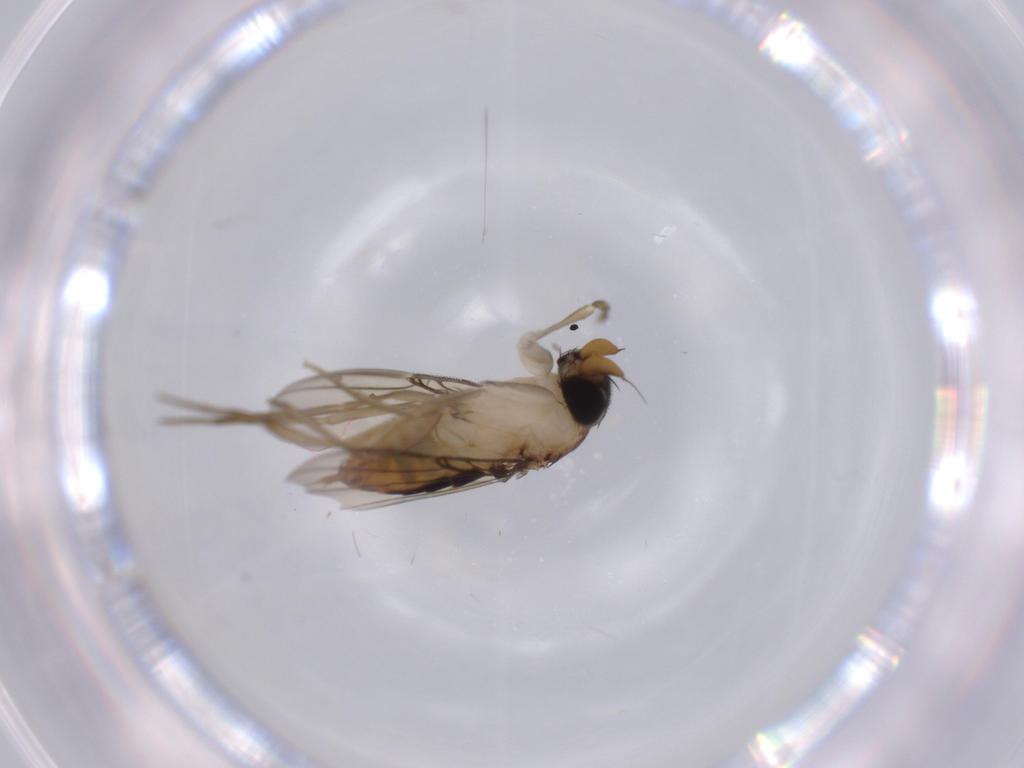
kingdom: Animalia
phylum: Arthropoda
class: Insecta
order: Diptera
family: Phoridae
